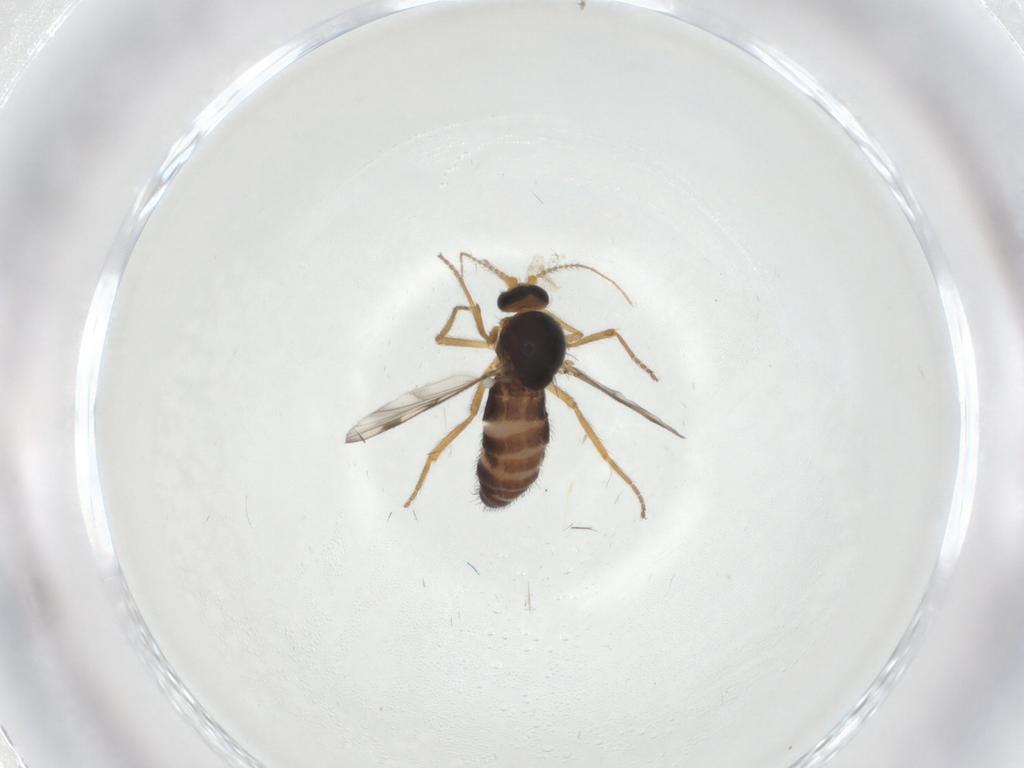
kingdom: Animalia
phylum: Arthropoda
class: Insecta
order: Diptera
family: Ceratopogonidae
